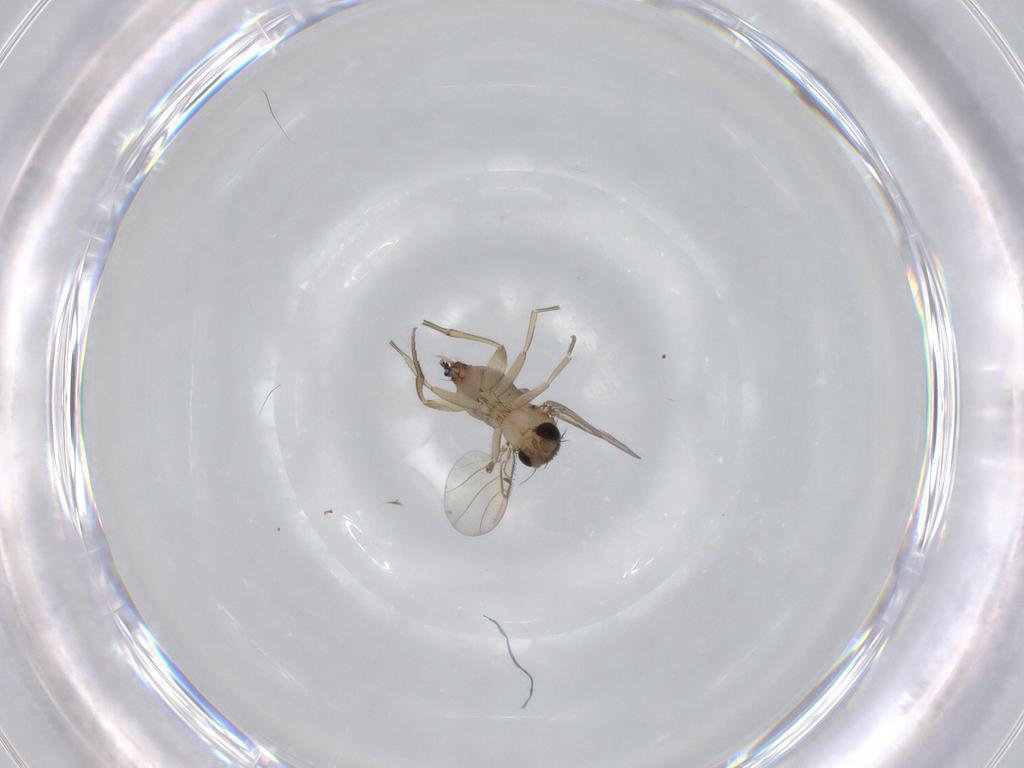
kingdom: Animalia
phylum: Arthropoda
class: Insecta
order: Diptera
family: Phoridae
